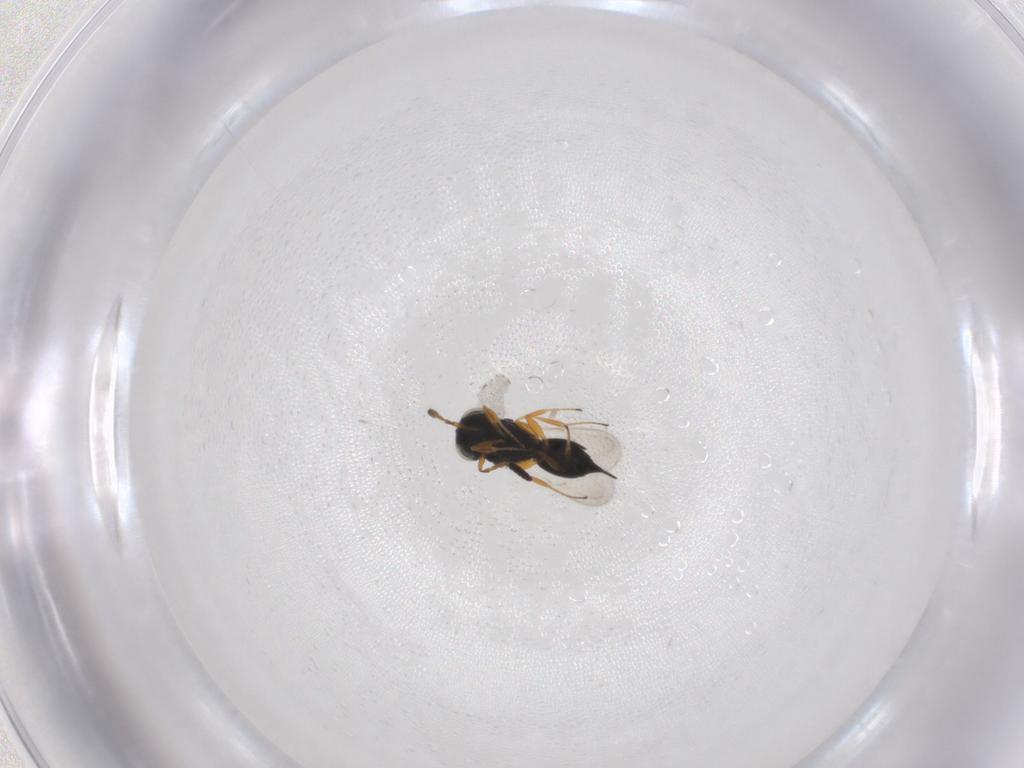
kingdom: Animalia
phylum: Arthropoda
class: Insecta
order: Hymenoptera
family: Scelionidae
